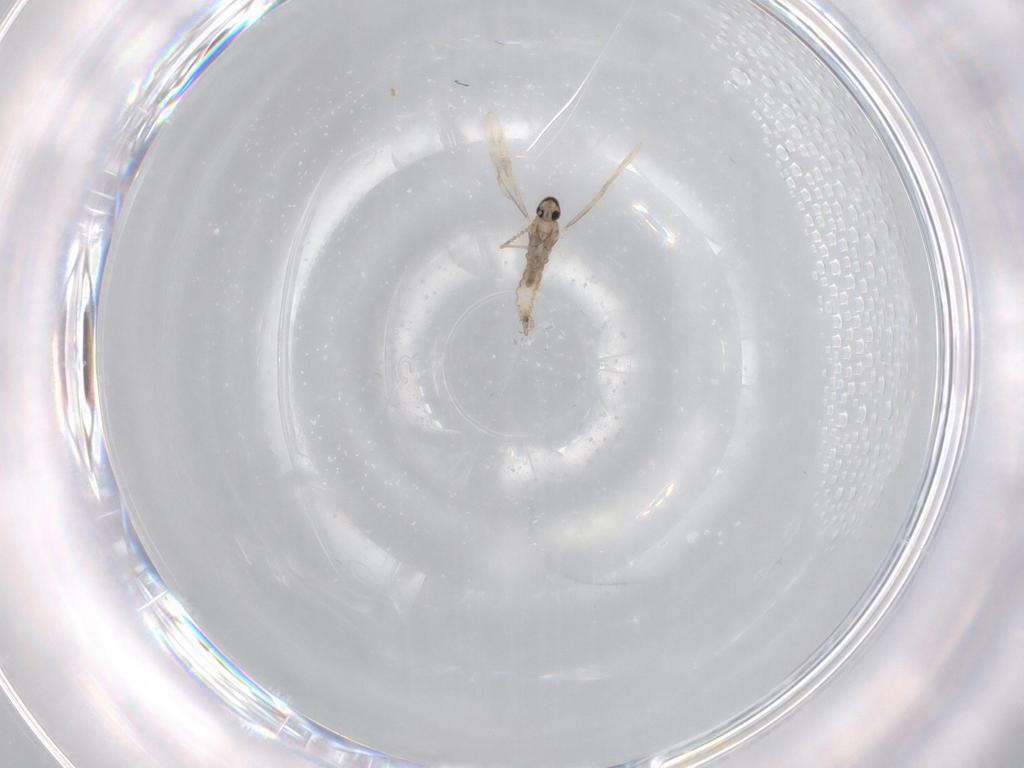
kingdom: Animalia
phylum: Arthropoda
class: Insecta
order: Diptera
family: Cecidomyiidae
